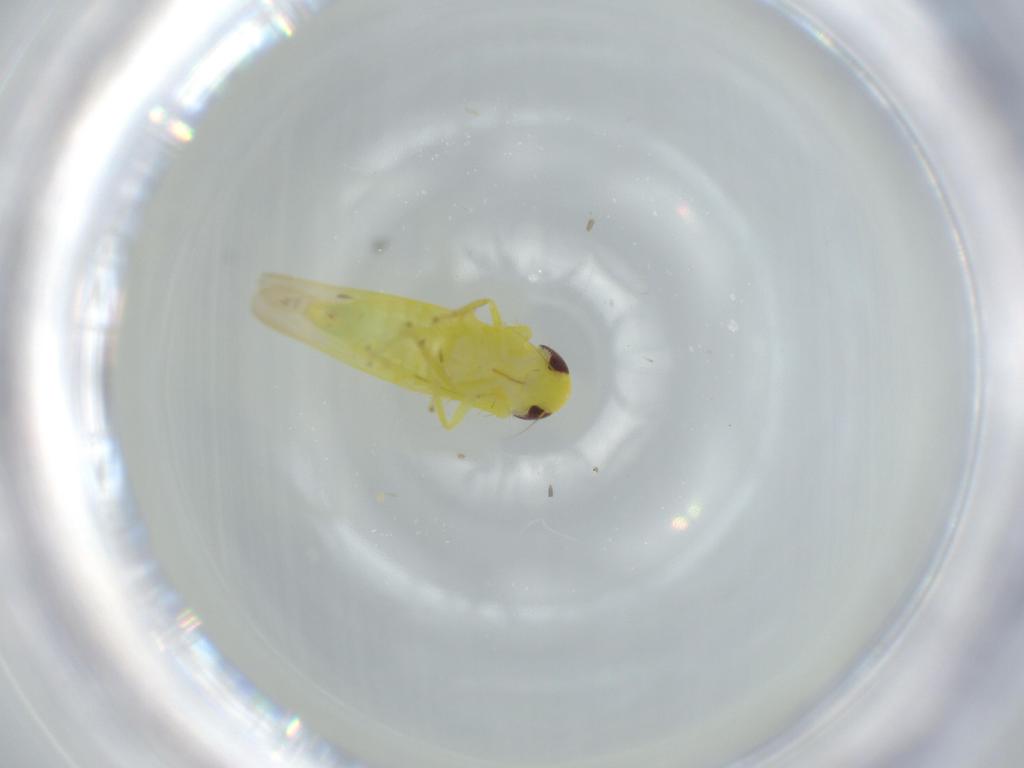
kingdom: Animalia
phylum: Arthropoda
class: Insecta
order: Hemiptera
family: Cicadellidae
